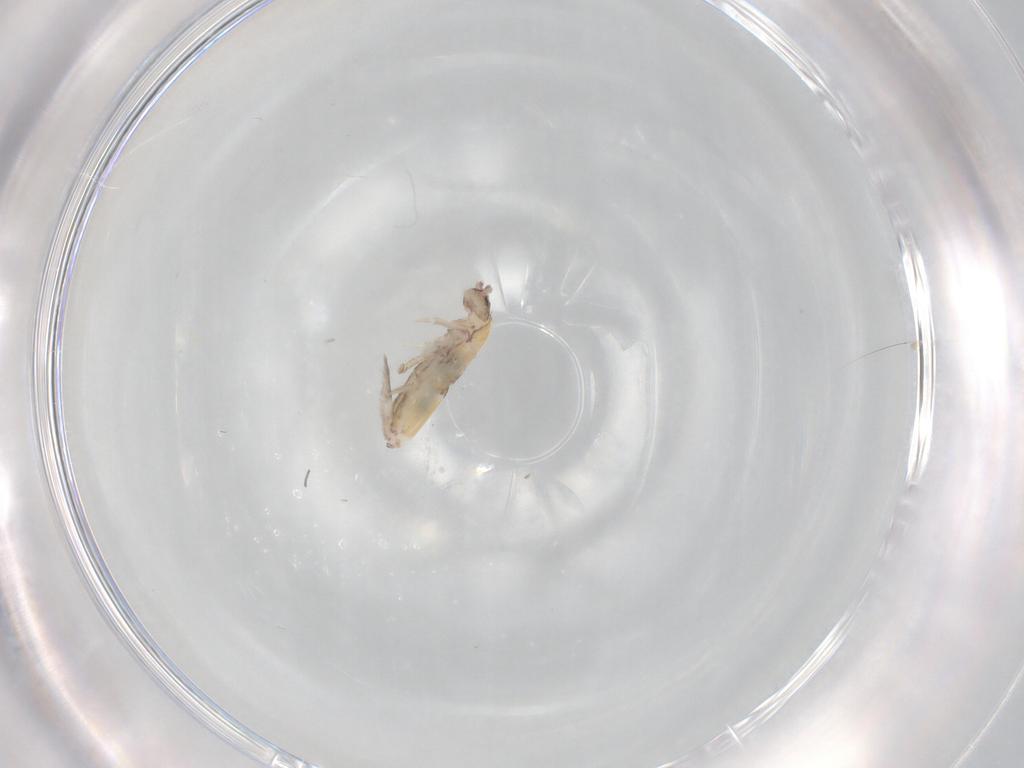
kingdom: Animalia
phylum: Arthropoda
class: Collembola
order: Entomobryomorpha
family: Entomobryidae
